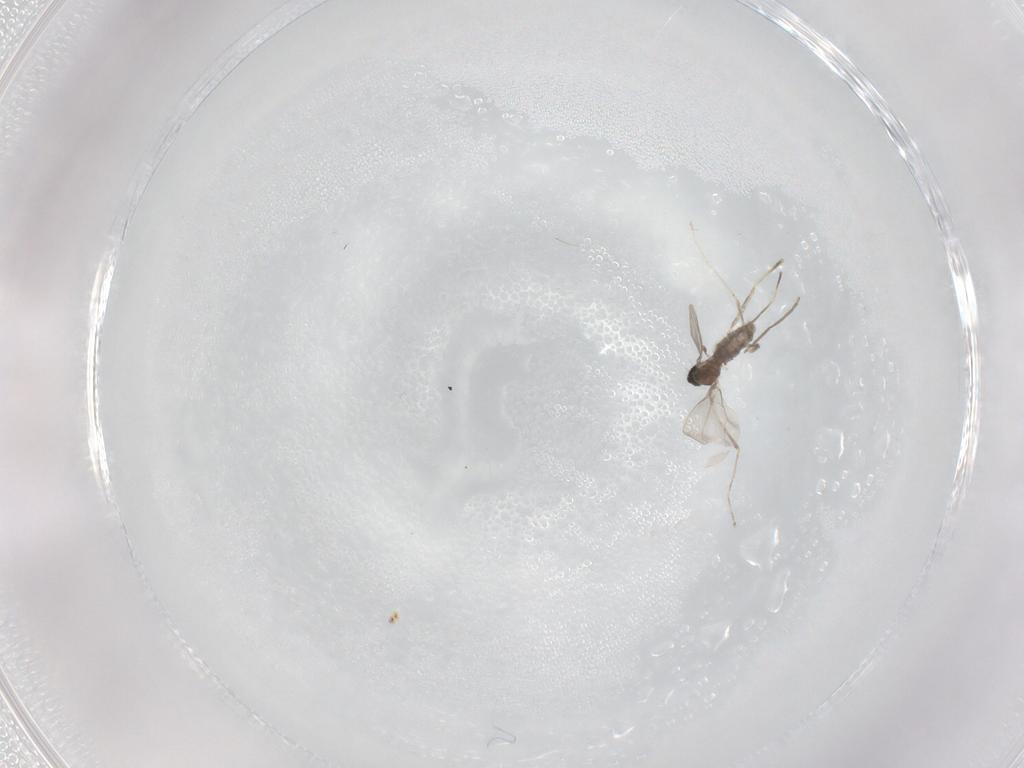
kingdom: Animalia
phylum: Arthropoda
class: Insecta
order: Diptera
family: Cecidomyiidae
